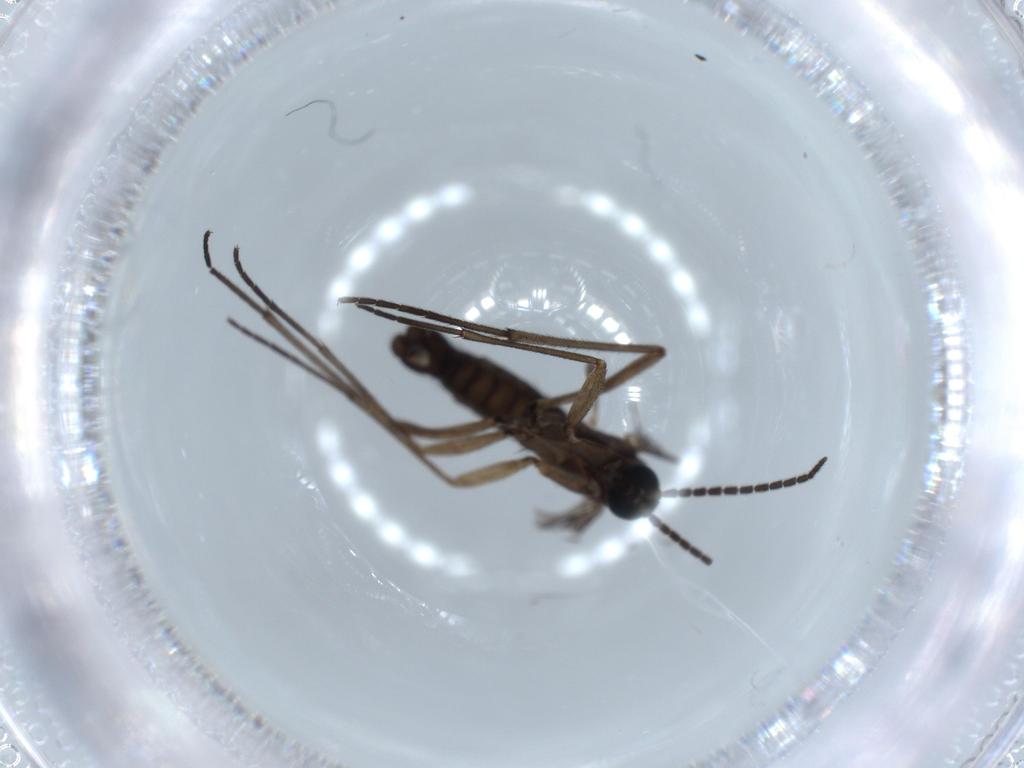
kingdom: Animalia
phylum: Arthropoda
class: Insecta
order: Diptera
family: Sciaridae
